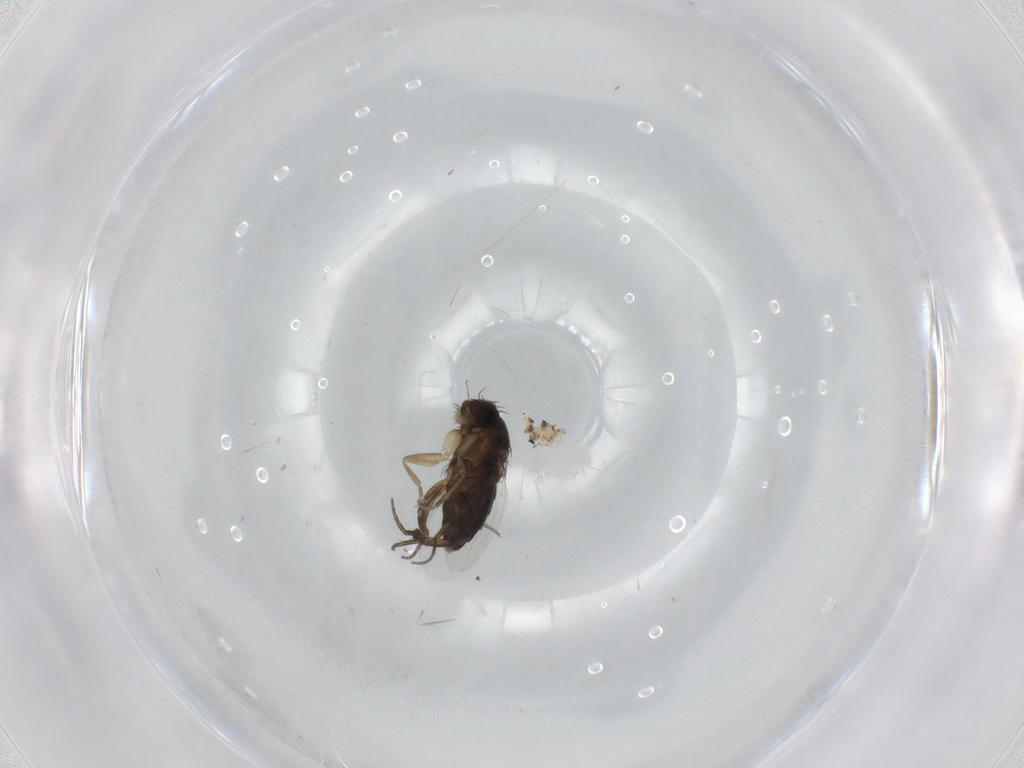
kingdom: Animalia
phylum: Arthropoda
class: Insecta
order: Diptera
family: Phoridae
